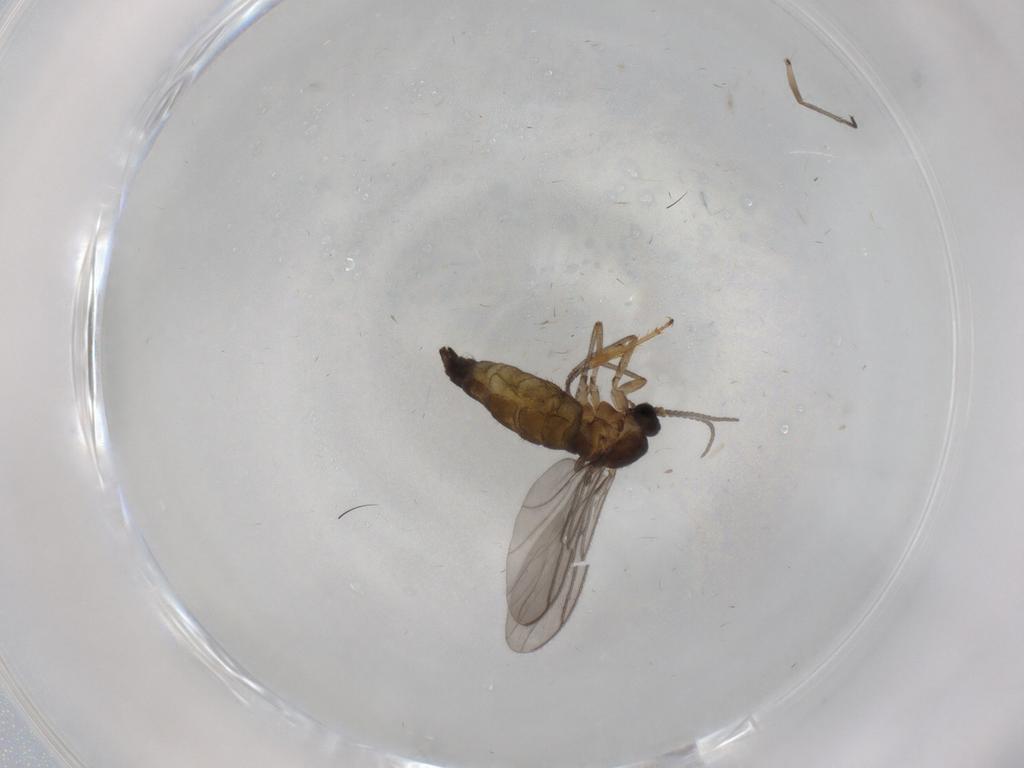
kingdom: Animalia
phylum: Arthropoda
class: Insecta
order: Diptera
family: Sciaridae
